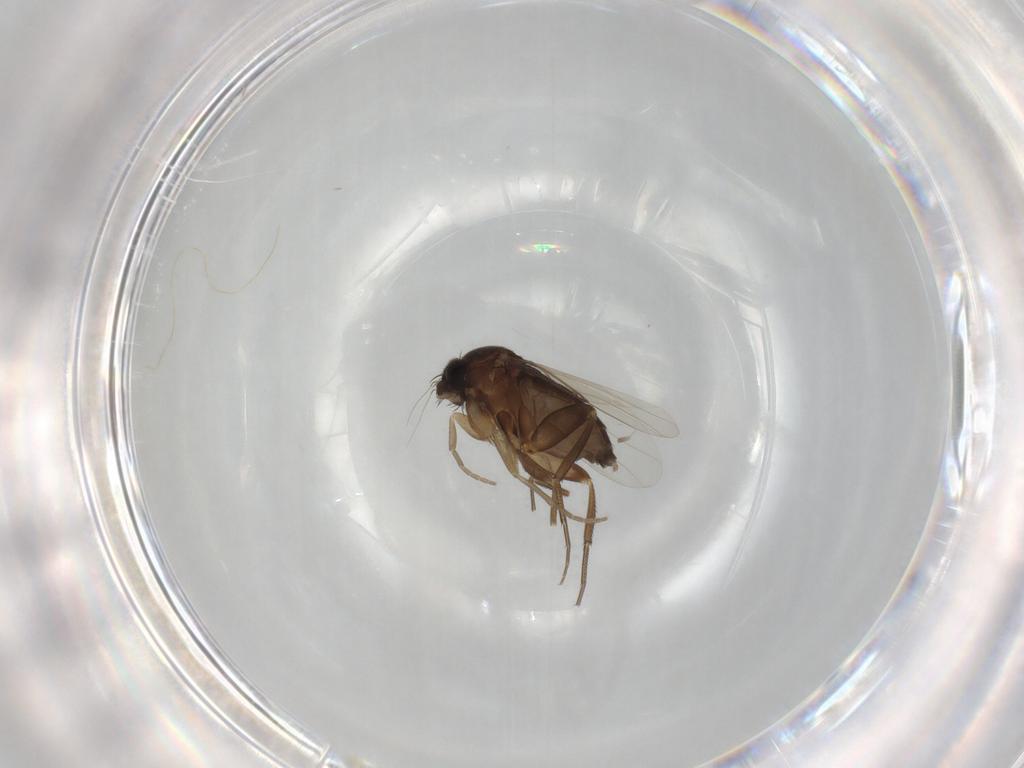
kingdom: Animalia
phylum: Arthropoda
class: Insecta
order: Diptera
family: Phoridae
